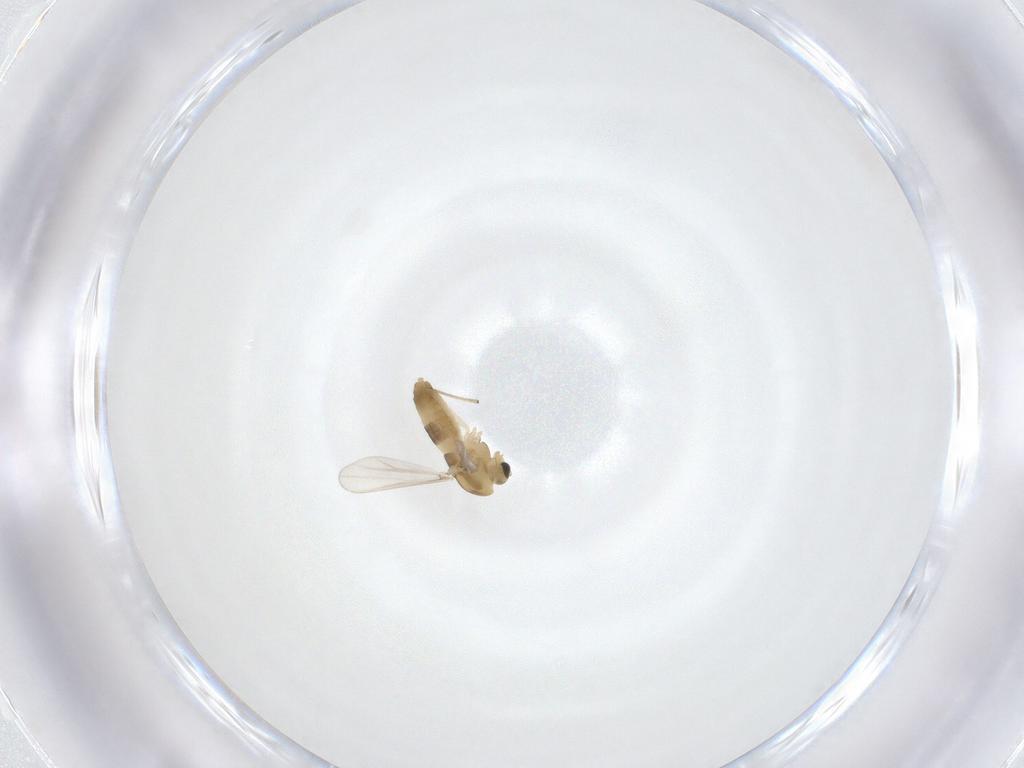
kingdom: Animalia
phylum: Arthropoda
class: Insecta
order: Diptera
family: Chironomidae
